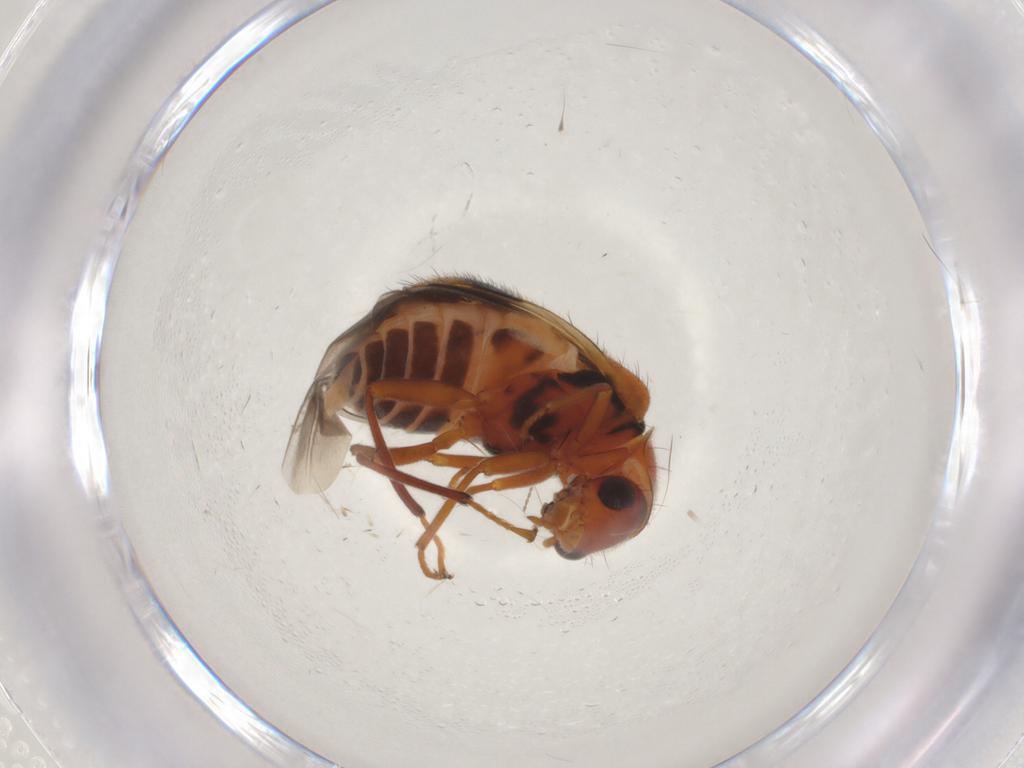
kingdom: Animalia
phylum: Arthropoda
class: Insecta
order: Coleoptera
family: Melyridae
